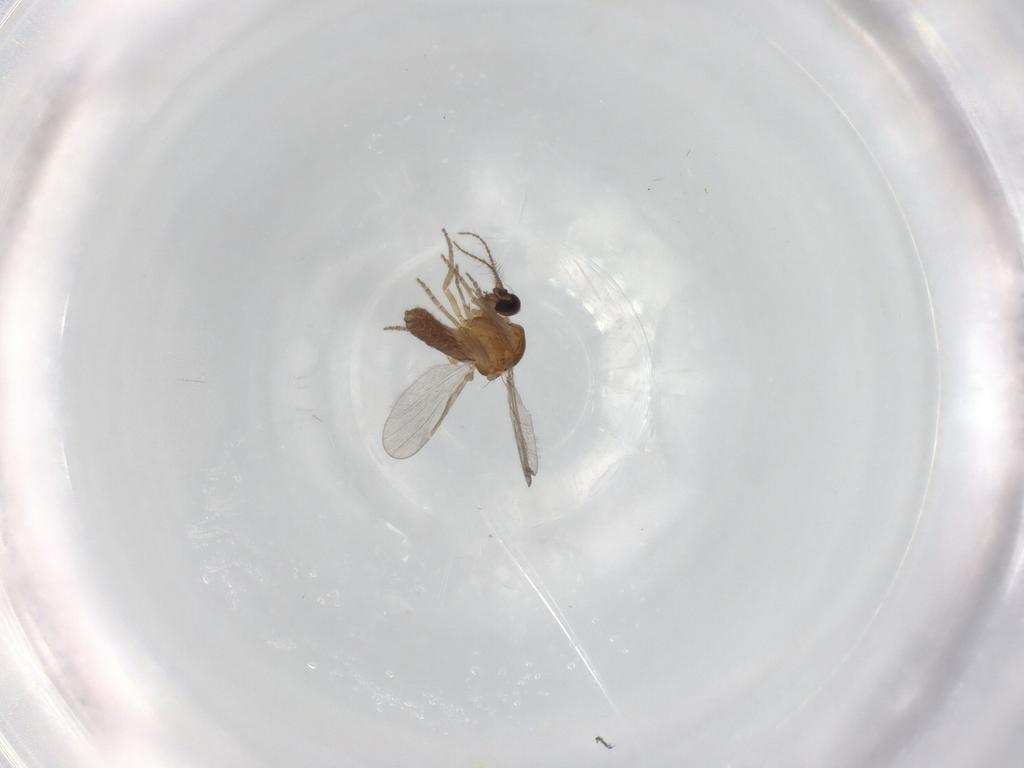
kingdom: Animalia
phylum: Arthropoda
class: Insecta
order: Diptera
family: Ceratopogonidae
